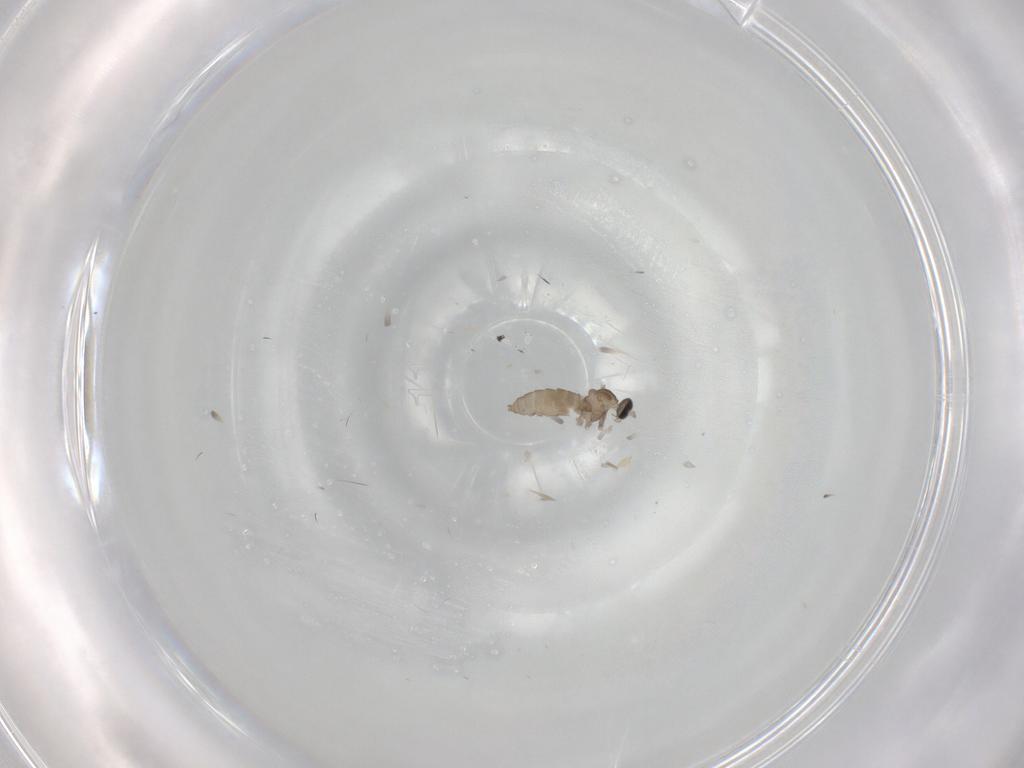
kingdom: Animalia
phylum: Arthropoda
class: Insecta
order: Diptera
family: Cecidomyiidae
